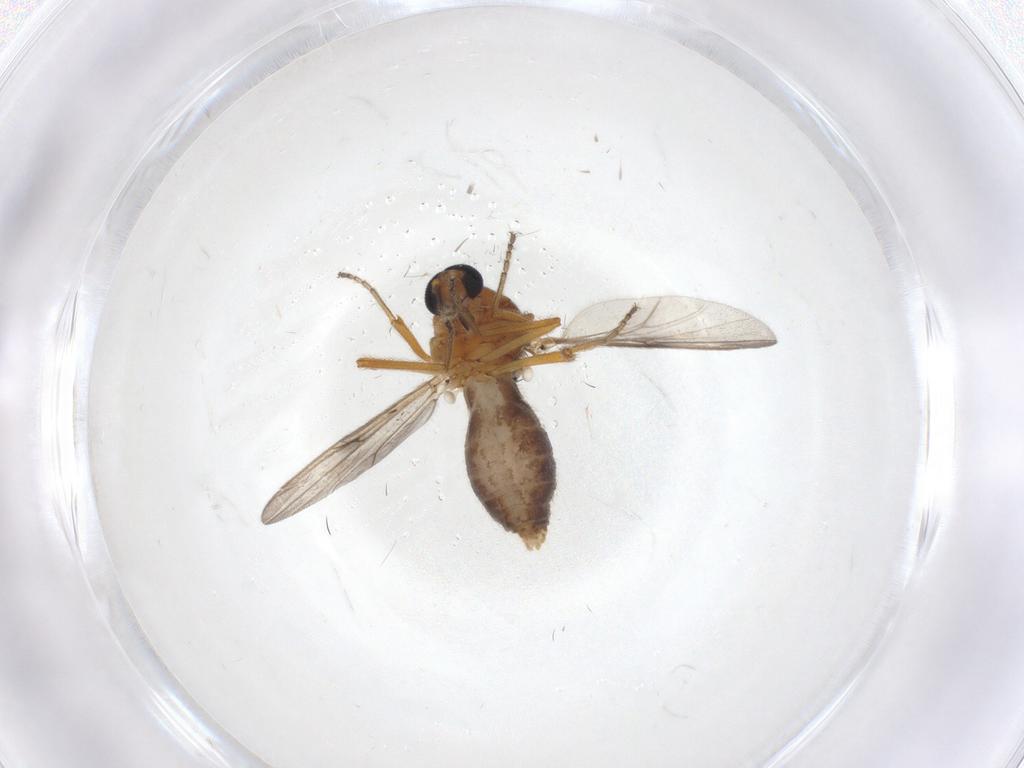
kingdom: Animalia
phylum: Arthropoda
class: Insecta
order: Diptera
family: Ceratopogonidae
